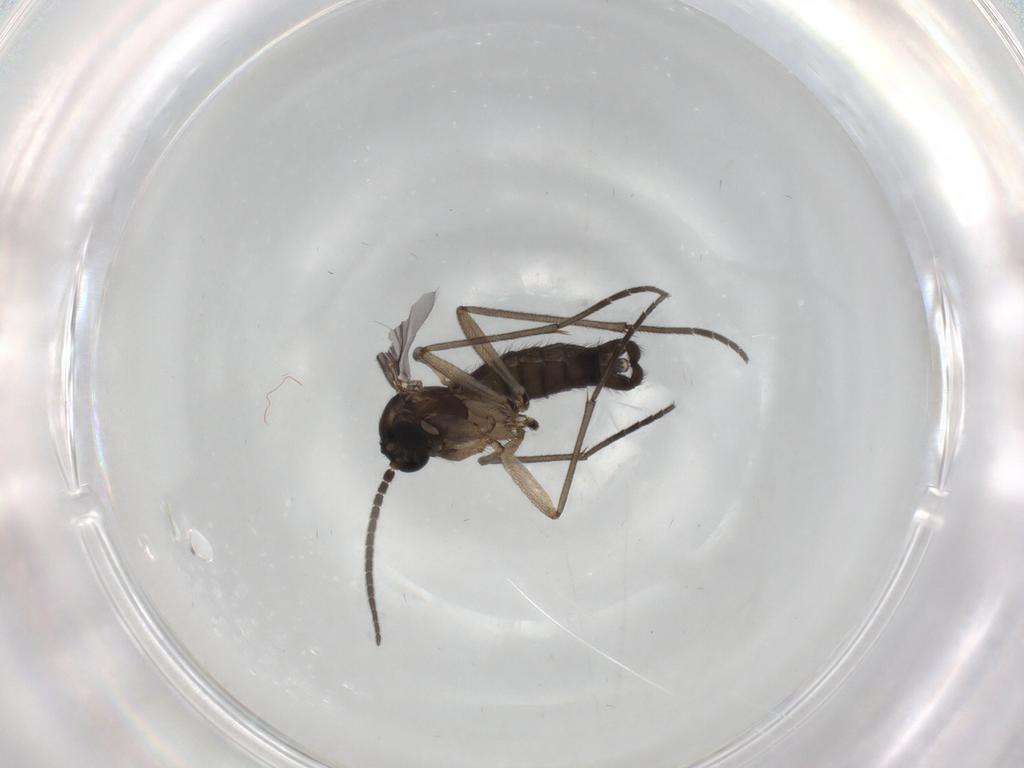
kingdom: Animalia
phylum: Arthropoda
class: Insecta
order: Diptera
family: Sciaridae
